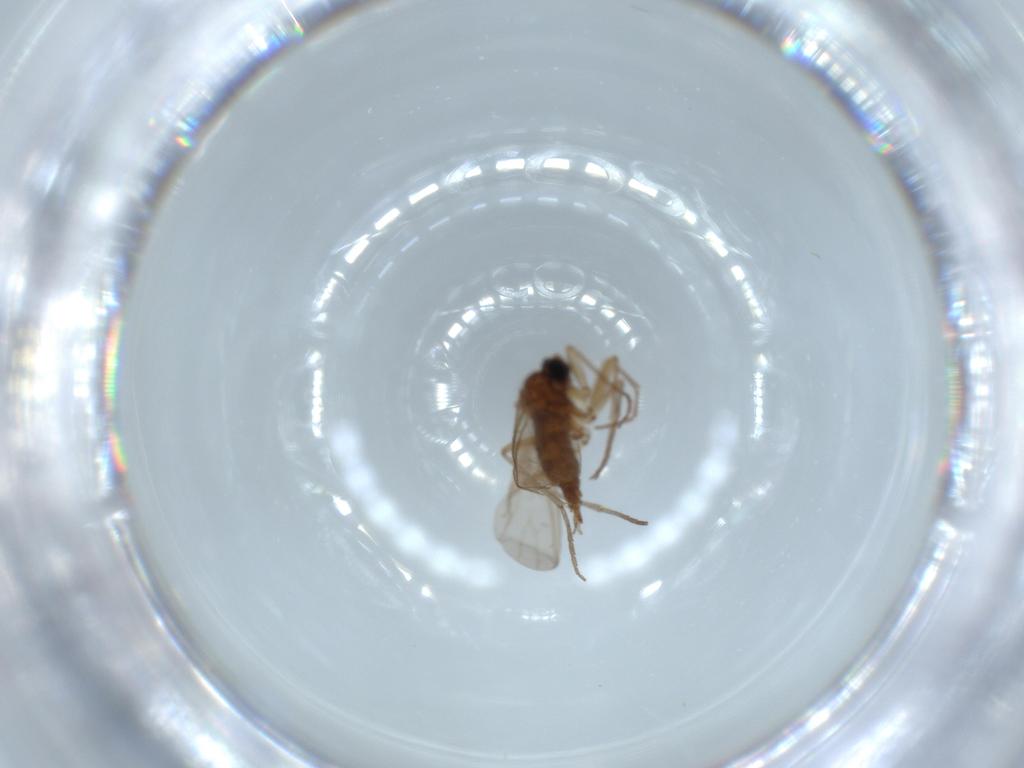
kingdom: Animalia
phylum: Arthropoda
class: Insecta
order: Diptera
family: Sciaridae
